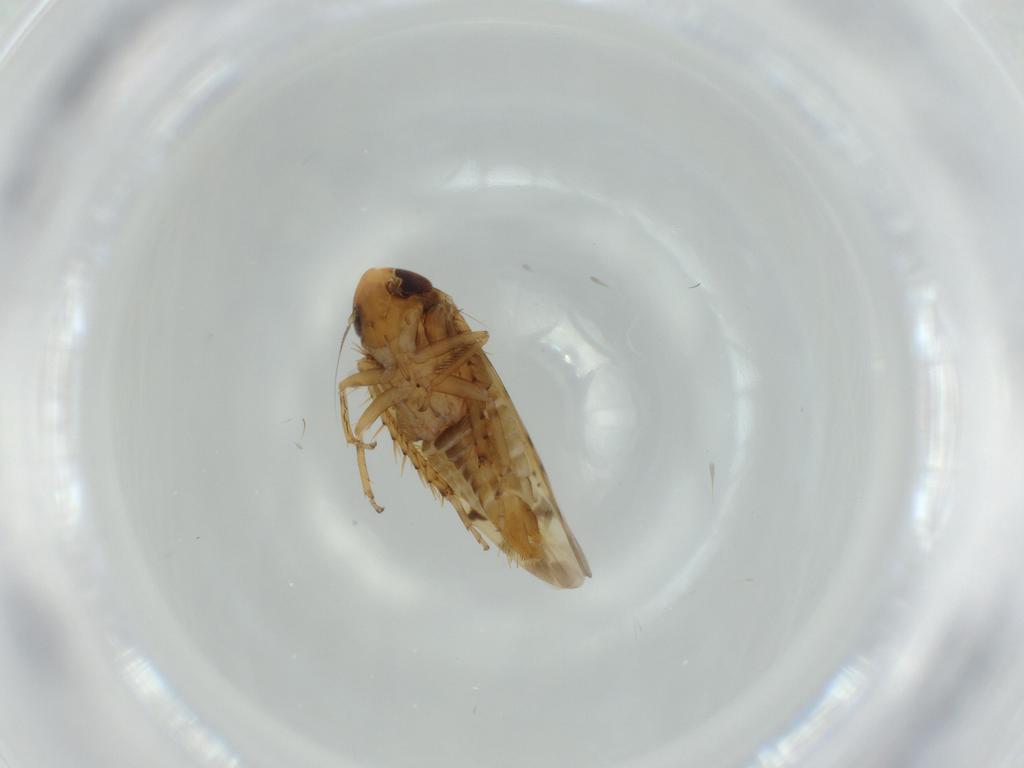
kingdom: Animalia
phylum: Arthropoda
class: Insecta
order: Hemiptera
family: Cicadellidae
